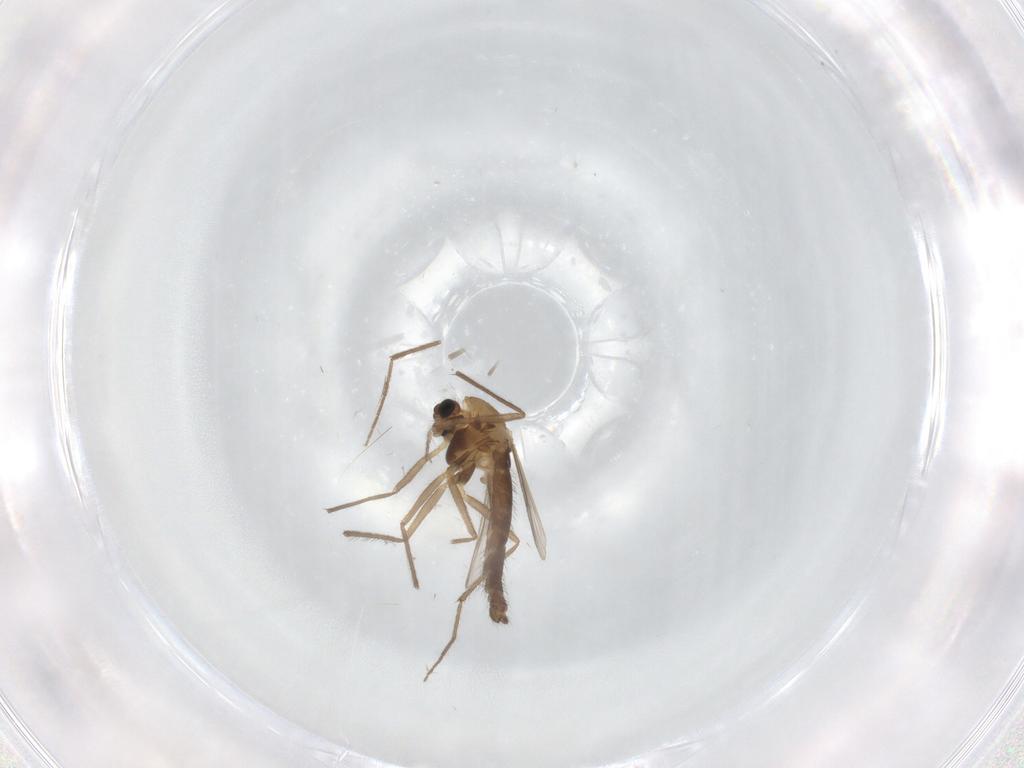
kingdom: Animalia
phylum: Arthropoda
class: Insecta
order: Diptera
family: Chironomidae
